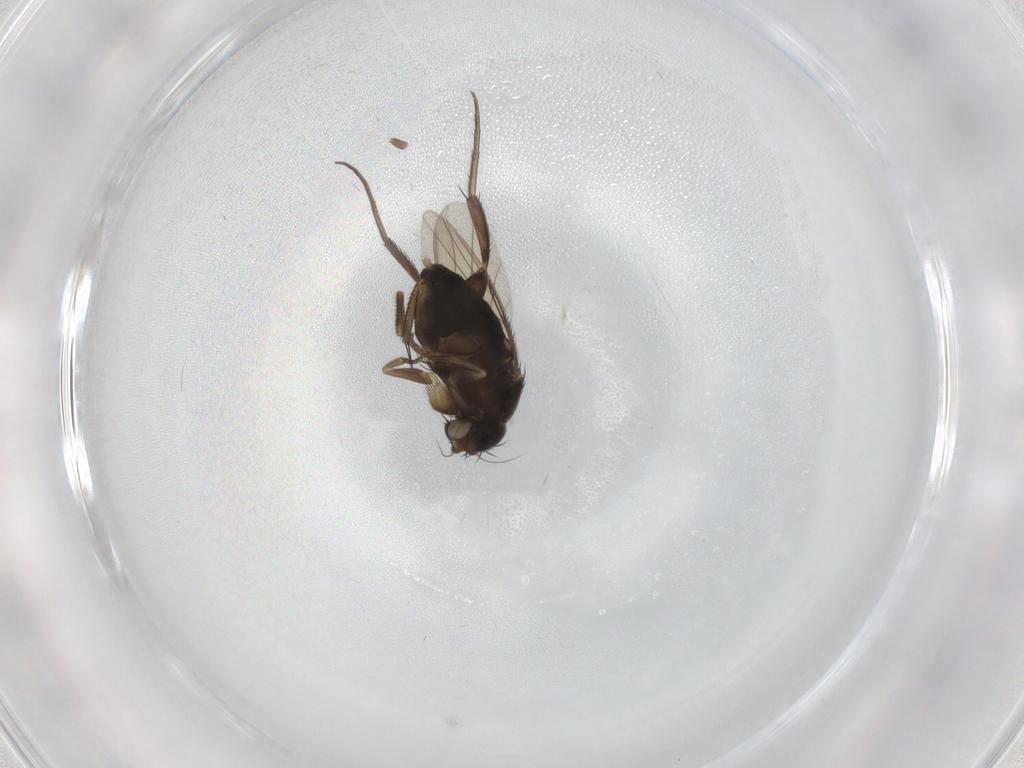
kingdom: Animalia
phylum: Arthropoda
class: Insecta
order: Diptera
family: Phoridae
